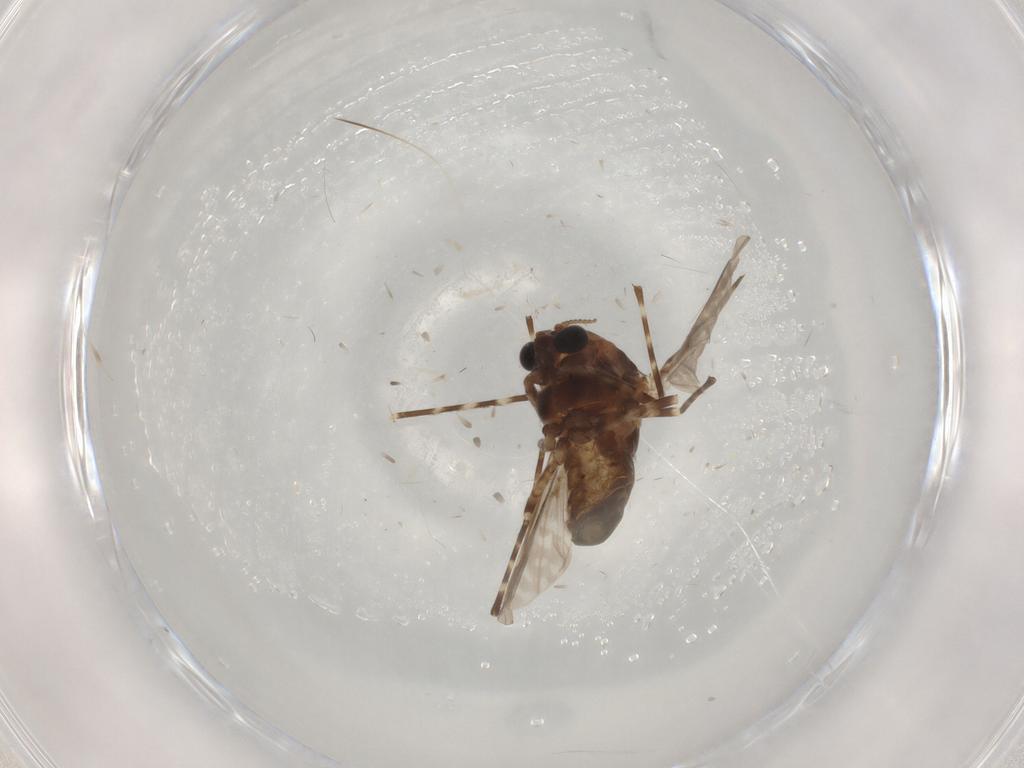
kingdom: Animalia
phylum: Arthropoda
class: Insecta
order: Diptera
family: Chironomidae
